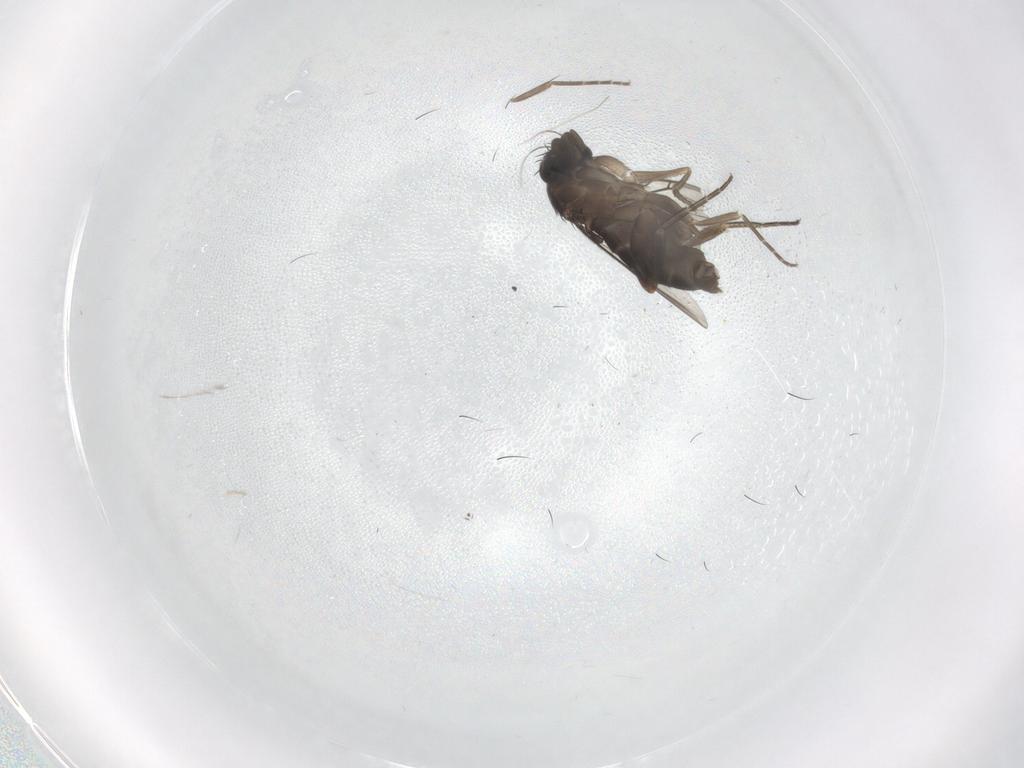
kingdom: Animalia
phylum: Arthropoda
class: Insecta
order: Diptera
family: Phoridae
